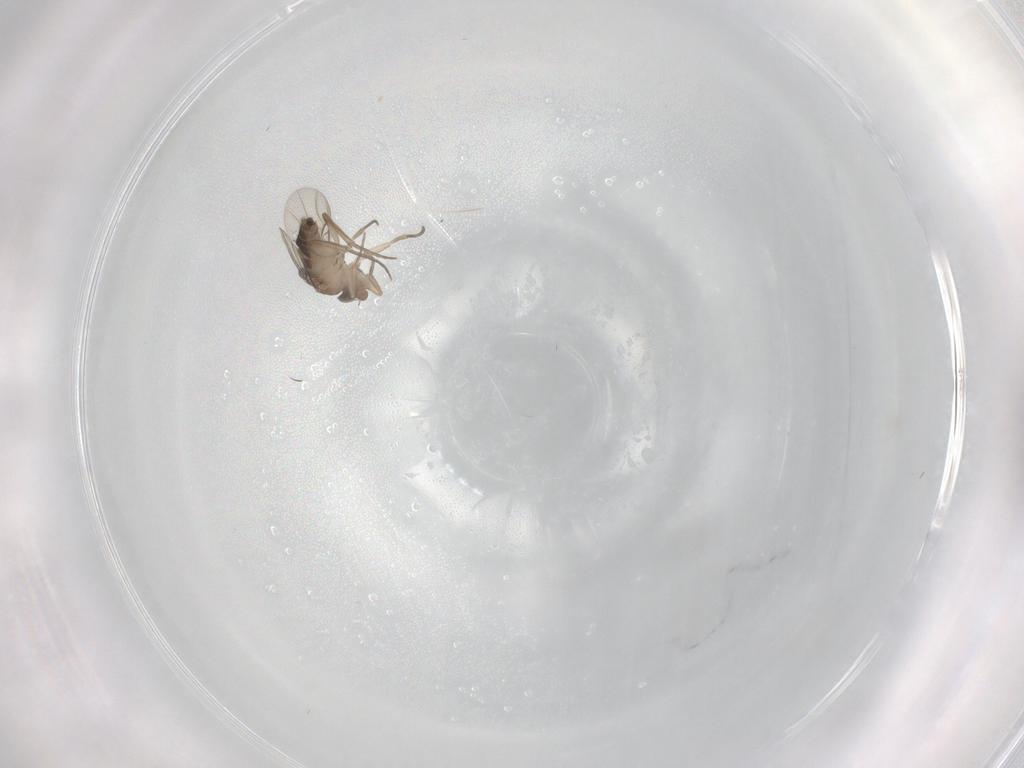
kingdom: Animalia
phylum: Arthropoda
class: Insecta
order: Diptera
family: Phoridae
